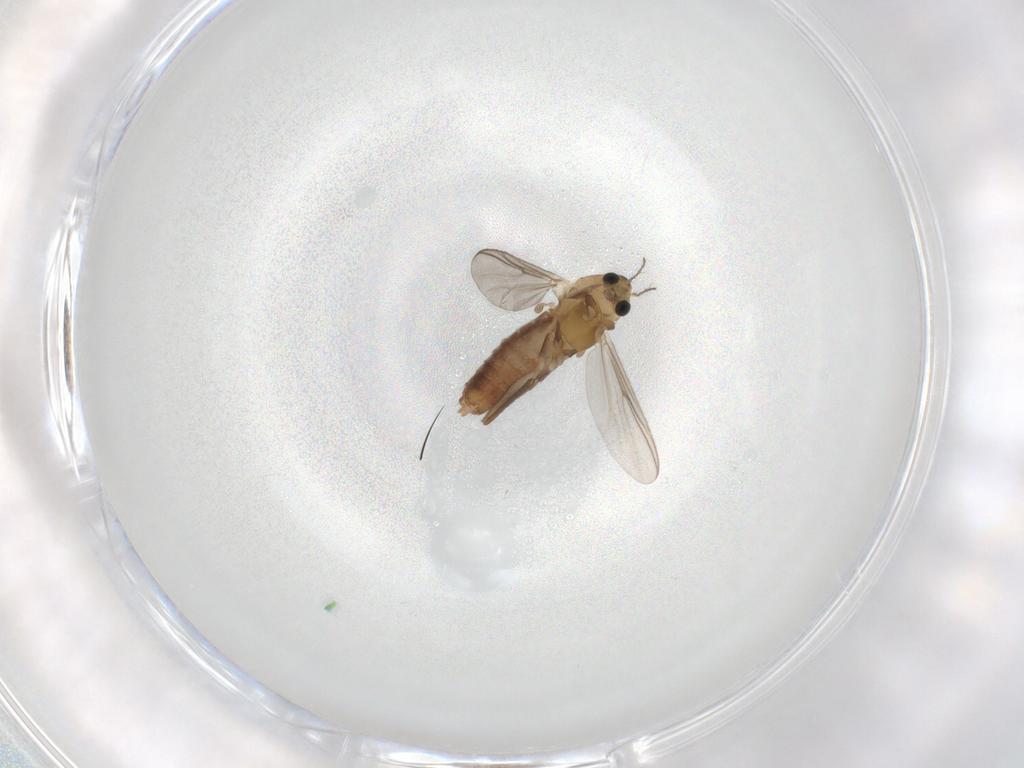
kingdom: Animalia
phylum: Arthropoda
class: Insecta
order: Diptera
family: Chironomidae
